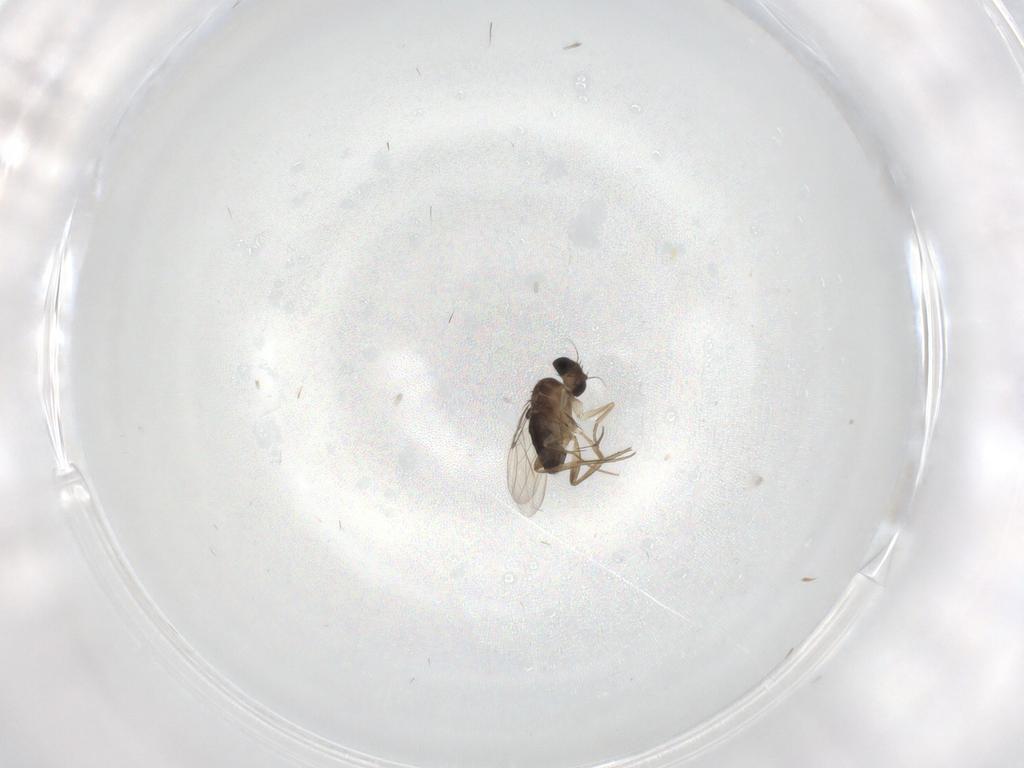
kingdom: Animalia
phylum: Arthropoda
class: Insecta
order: Diptera
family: Phoridae
